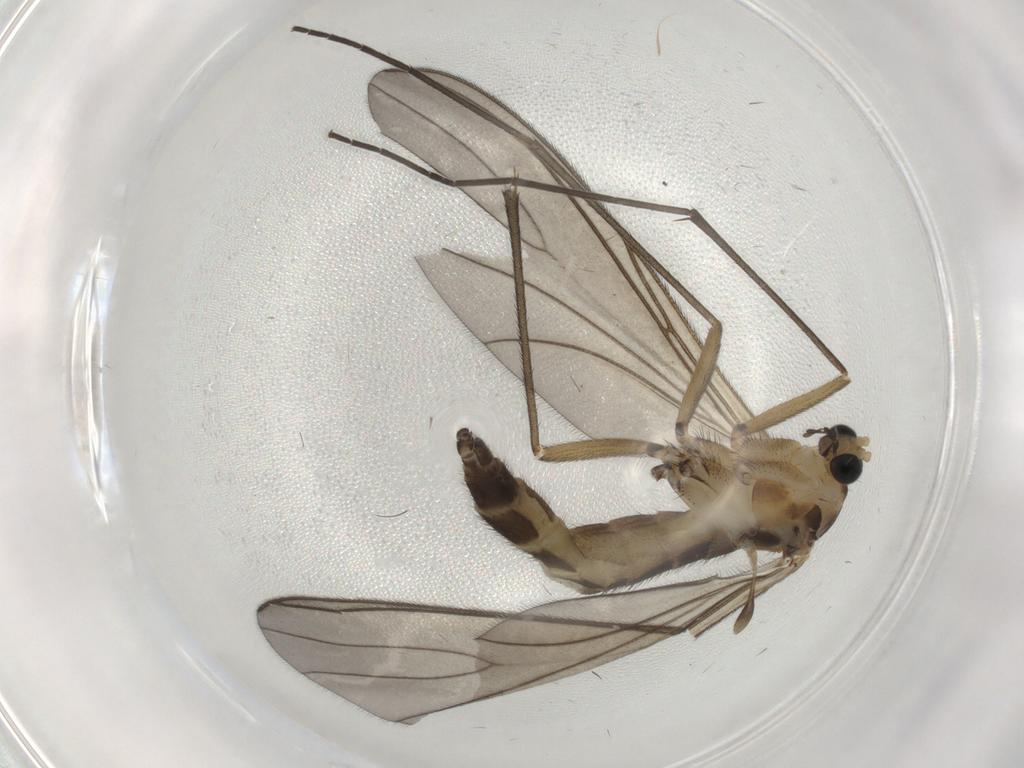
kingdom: Animalia
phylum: Arthropoda
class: Insecta
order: Diptera
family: Sciaridae
